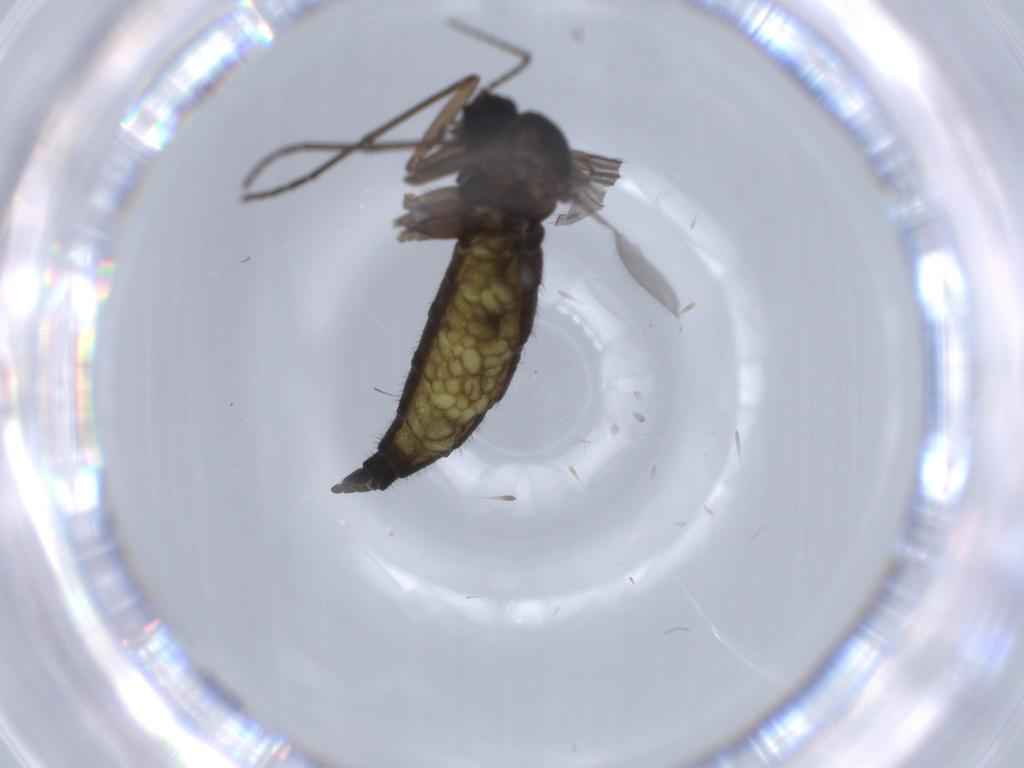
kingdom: Animalia
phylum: Arthropoda
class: Insecta
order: Diptera
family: Sciaridae
